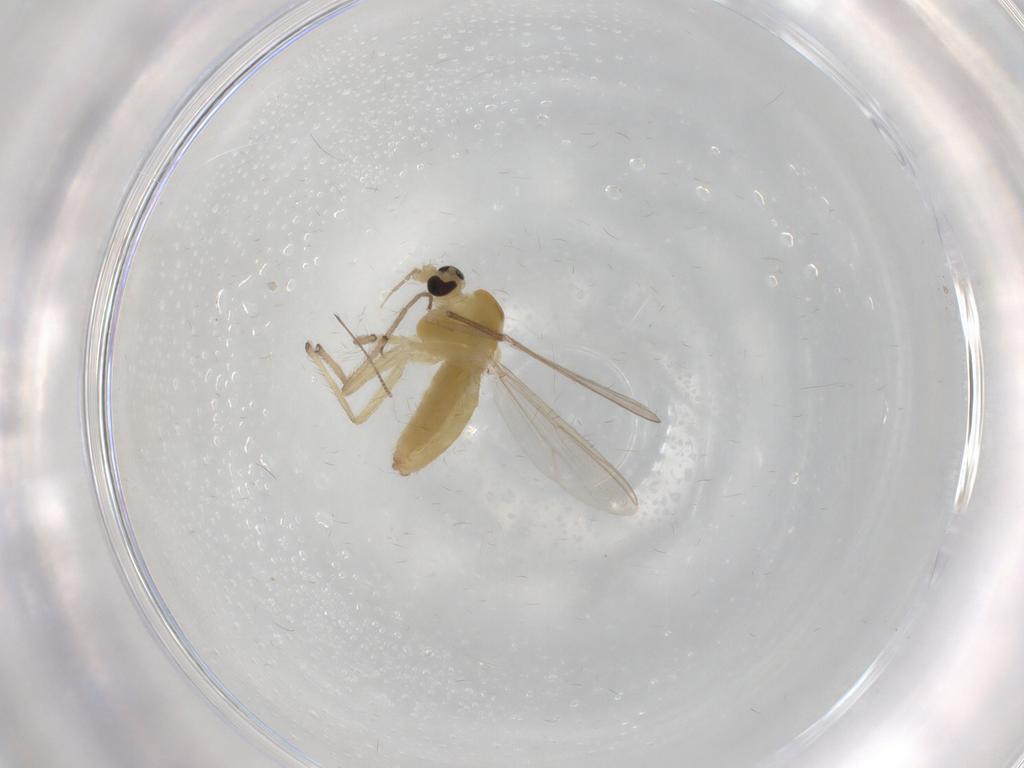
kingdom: Animalia
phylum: Arthropoda
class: Insecta
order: Diptera
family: Chironomidae
